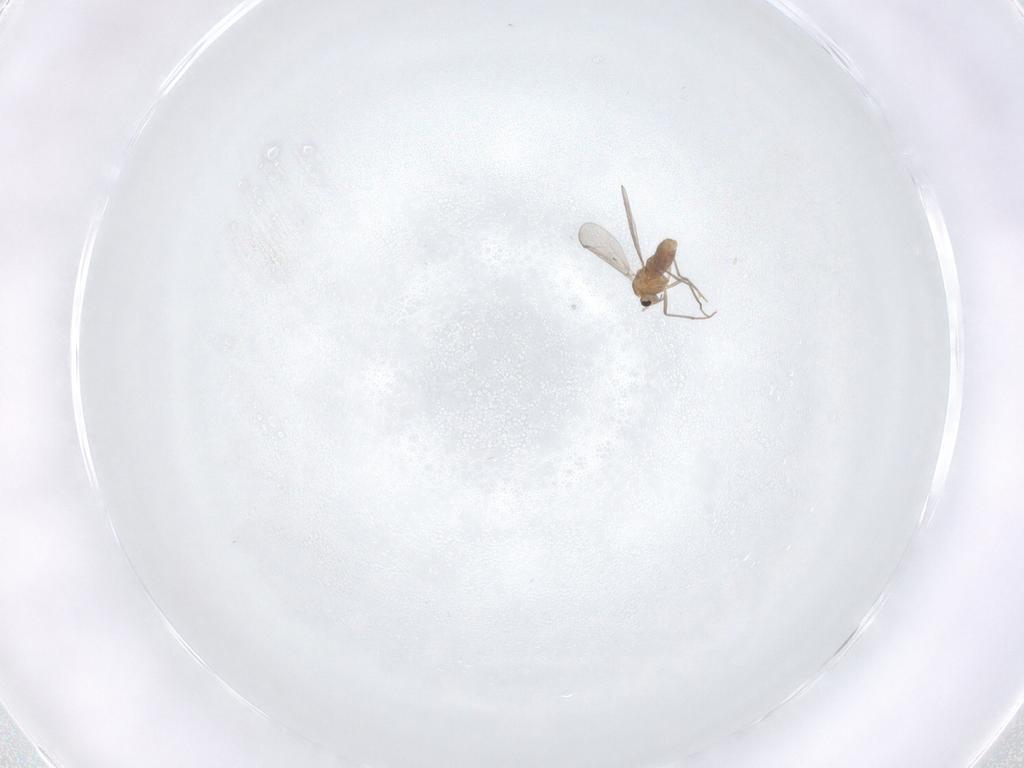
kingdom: Animalia
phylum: Arthropoda
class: Insecta
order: Diptera
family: Chironomidae
